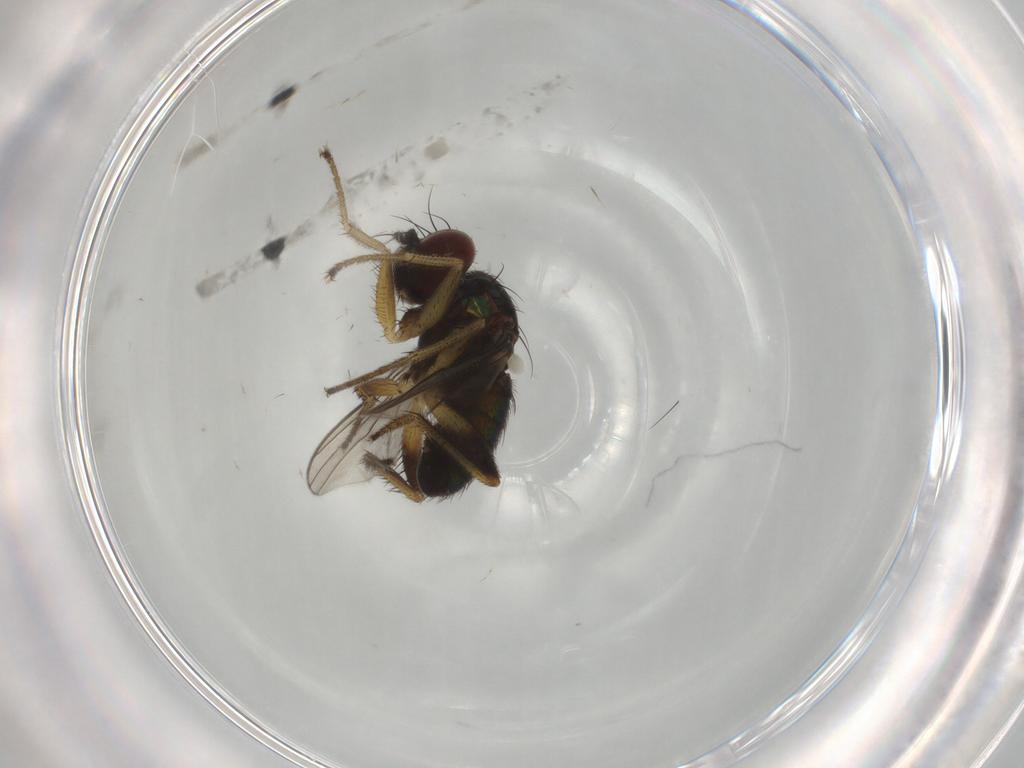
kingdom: Animalia
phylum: Arthropoda
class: Insecta
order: Diptera
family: Dolichopodidae
